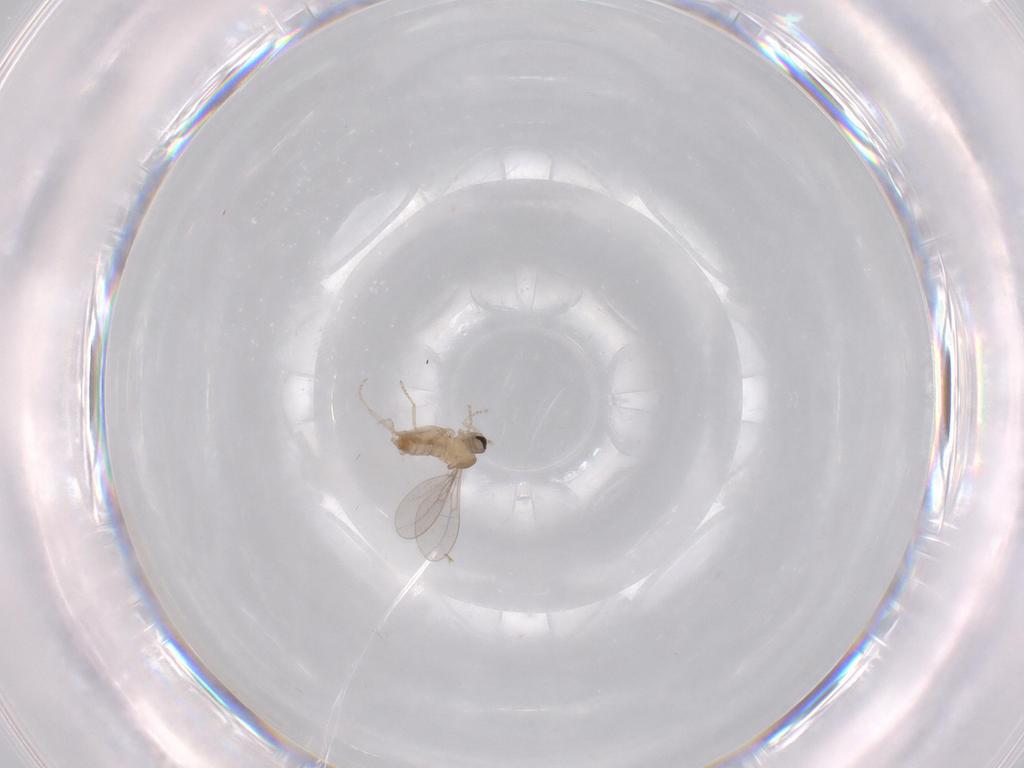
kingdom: Animalia
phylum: Arthropoda
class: Insecta
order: Diptera
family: Cecidomyiidae
